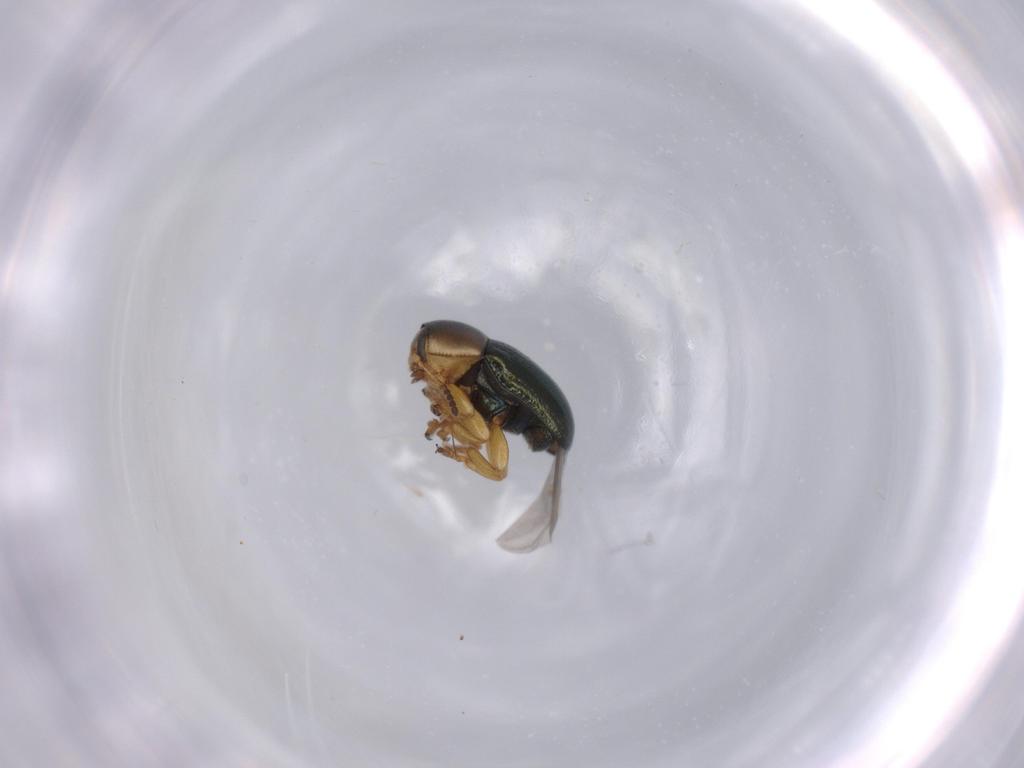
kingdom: Animalia
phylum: Arthropoda
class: Insecta
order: Coleoptera
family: Chrysomelidae
